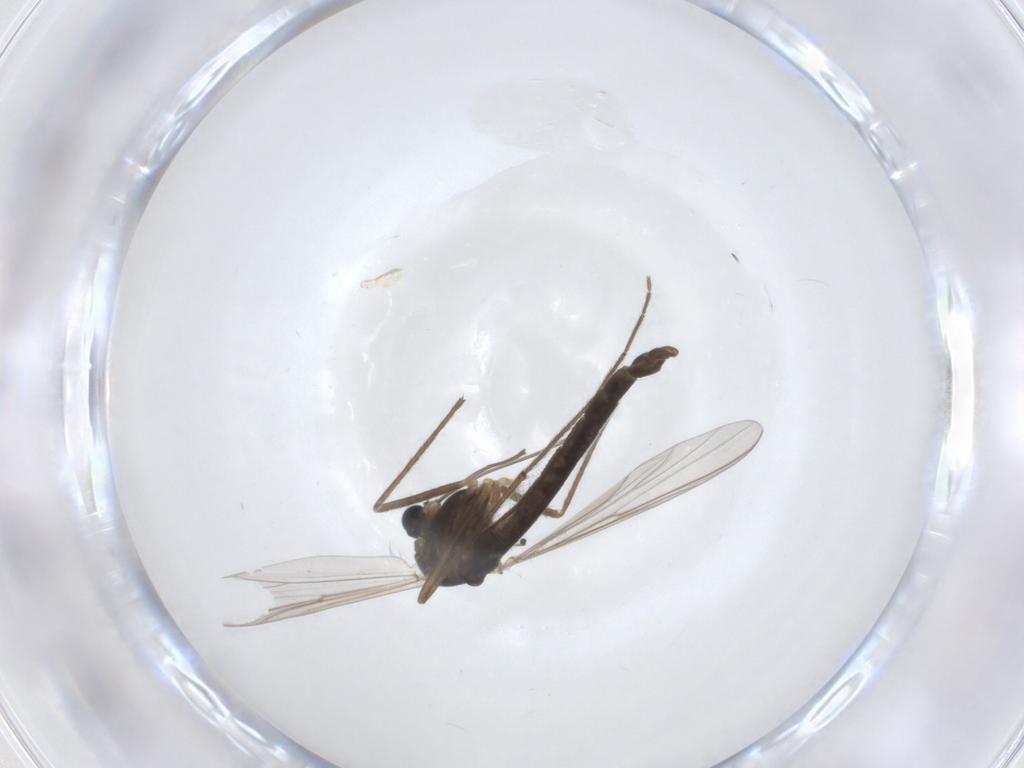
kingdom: Animalia
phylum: Arthropoda
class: Insecta
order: Diptera
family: Chironomidae
